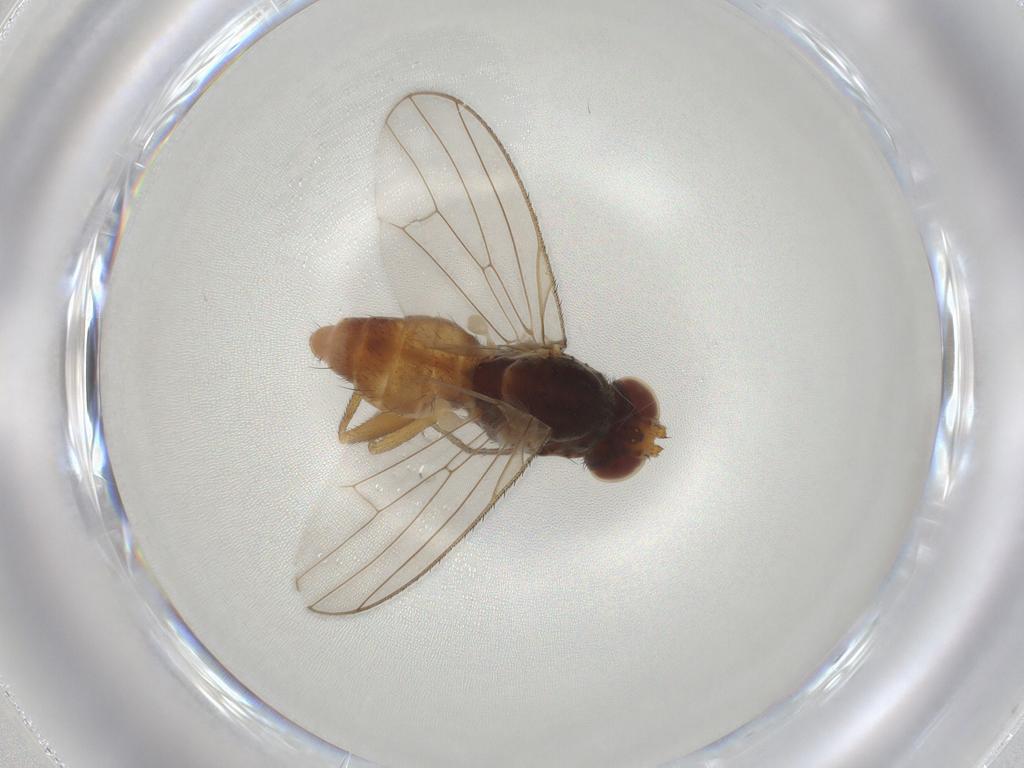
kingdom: Animalia
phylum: Arthropoda
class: Insecta
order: Diptera
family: Heleomyzidae
